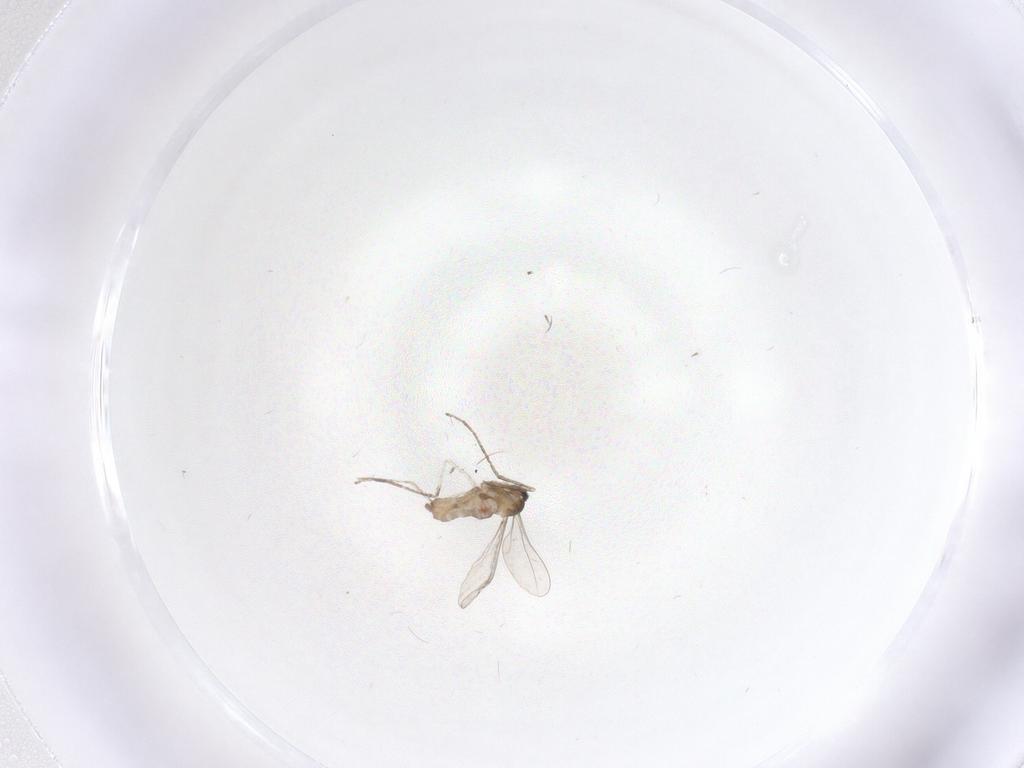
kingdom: Animalia
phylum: Arthropoda
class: Insecta
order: Diptera
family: Cecidomyiidae
